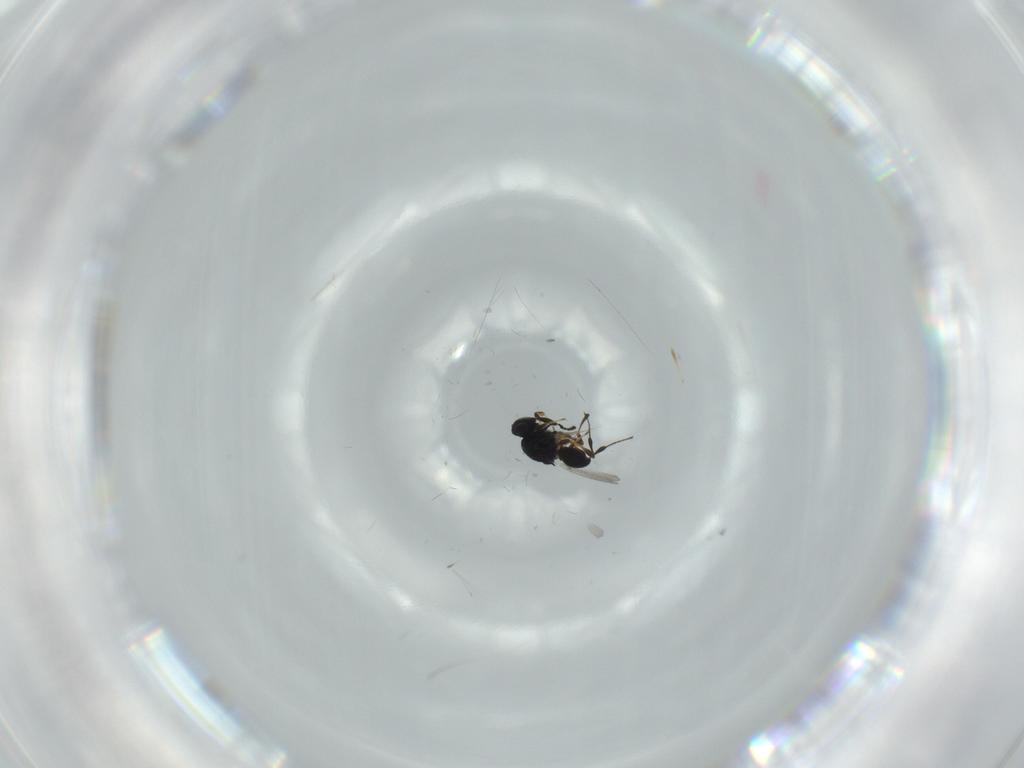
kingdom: Animalia
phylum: Arthropoda
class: Insecta
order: Hymenoptera
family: Platygastridae
